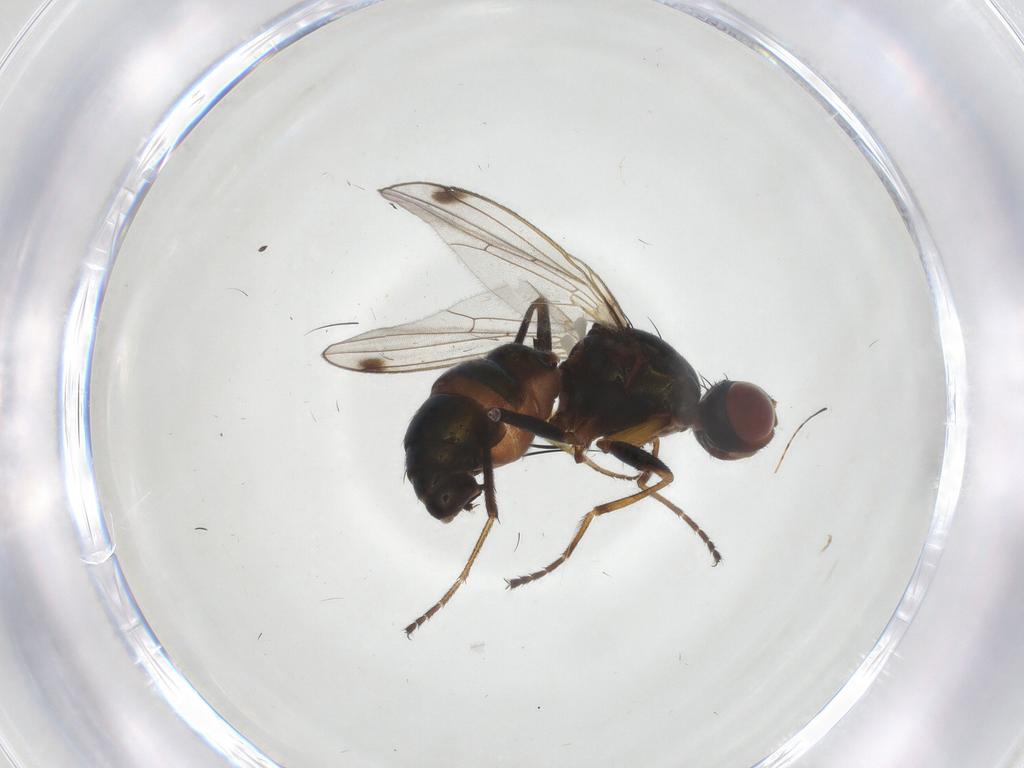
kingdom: Animalia
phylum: Arthropoda
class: Insecta
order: Diptera
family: Sepsidae
